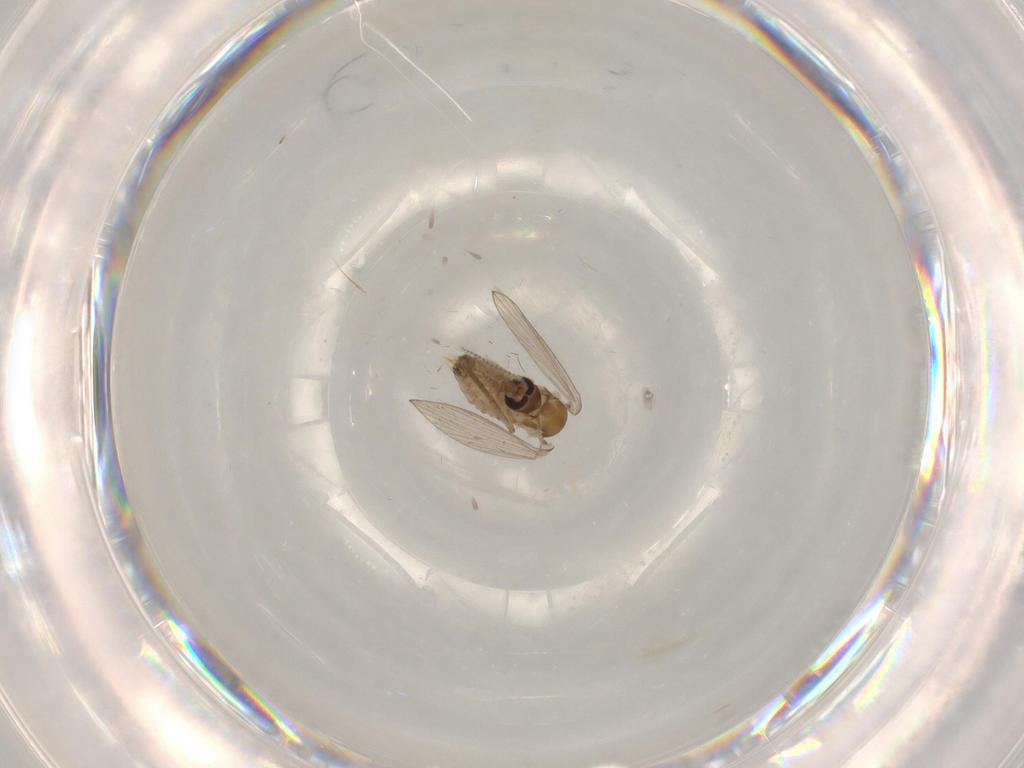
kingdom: Animalia
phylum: Arthropoda
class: Insecta
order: Diptera
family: Psychodidae
